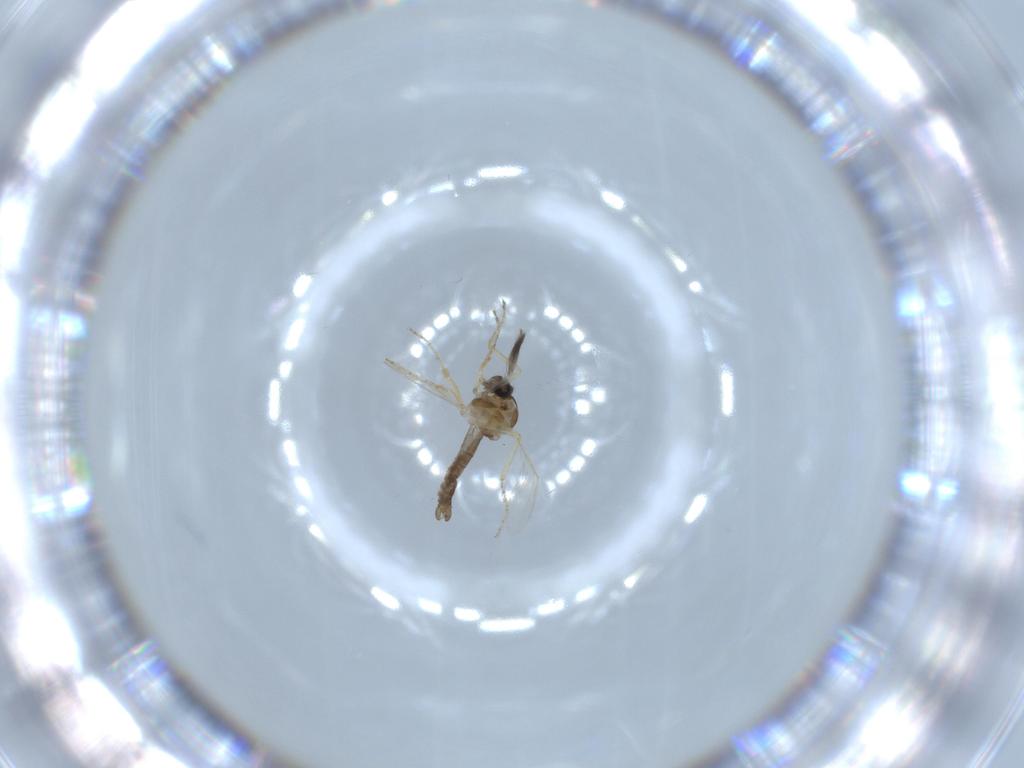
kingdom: Animalia
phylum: Arthropoda
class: Insecta
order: Diptera
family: Ceratopogonidae
